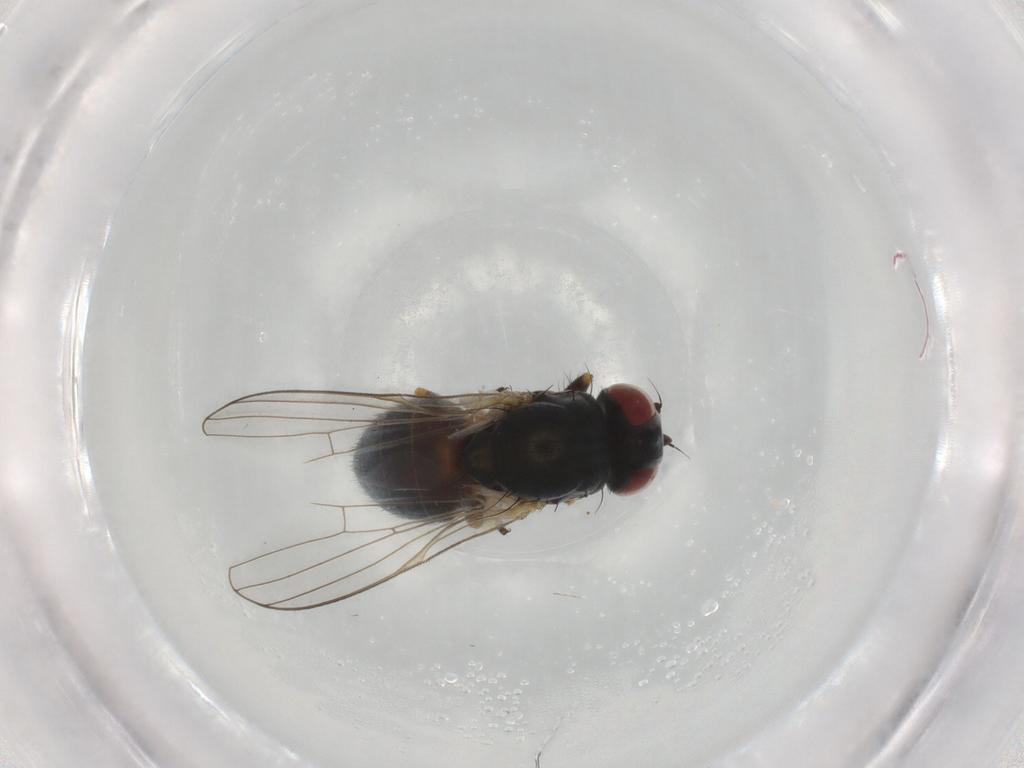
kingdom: Animalia
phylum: Arthropoda
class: Insecta
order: Diptera
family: Chamaemyiidae
